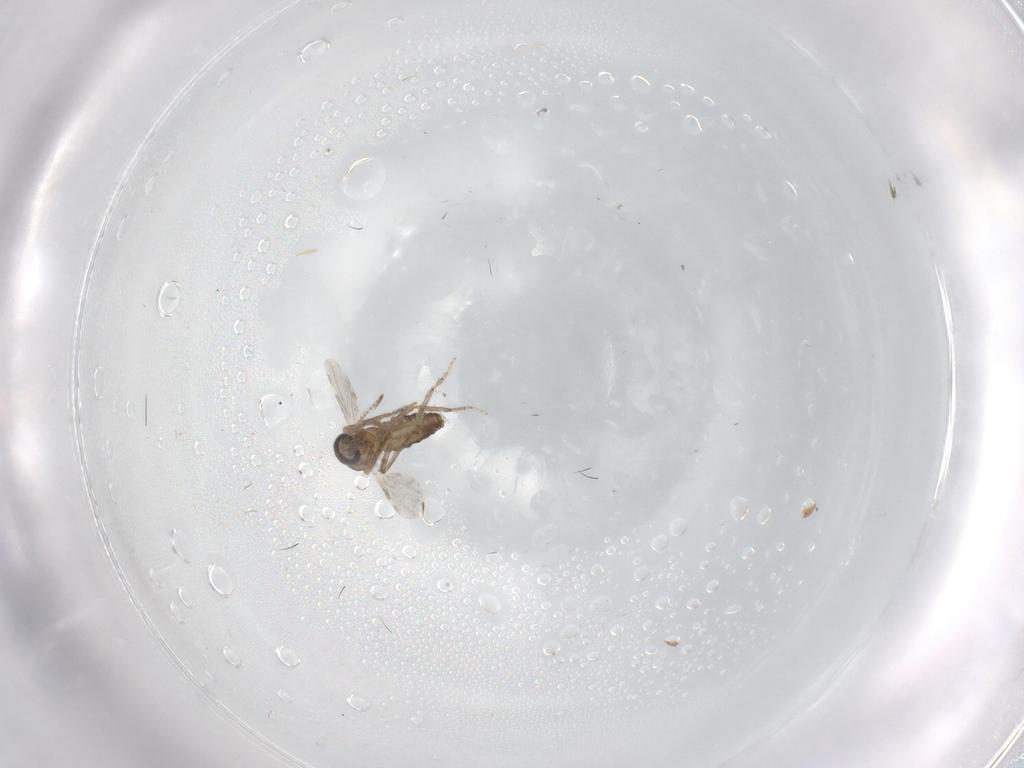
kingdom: Animalia
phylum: Arthropoda
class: Insecta
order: Diptera
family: Ceratopogonidae
